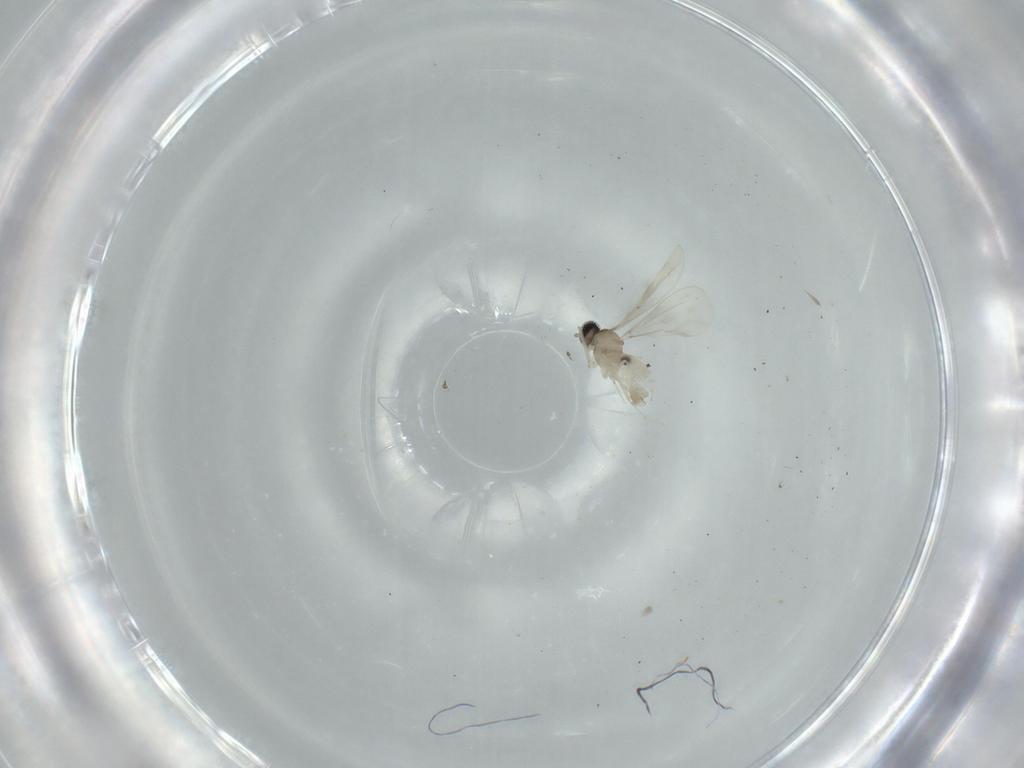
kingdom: Animalia
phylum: Arthropoda
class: Insecta
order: Diptera
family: Cecidomyiidae
